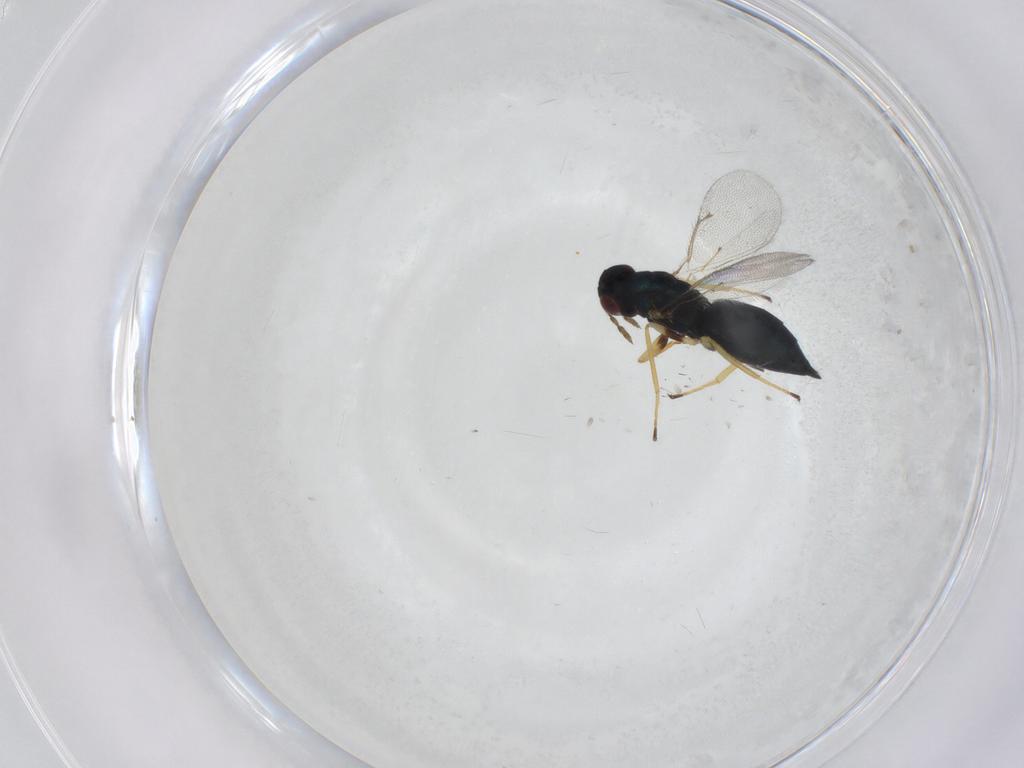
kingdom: Animalia
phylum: Arthropoda
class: Insecta
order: Hymenoptera
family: Eulophidae
